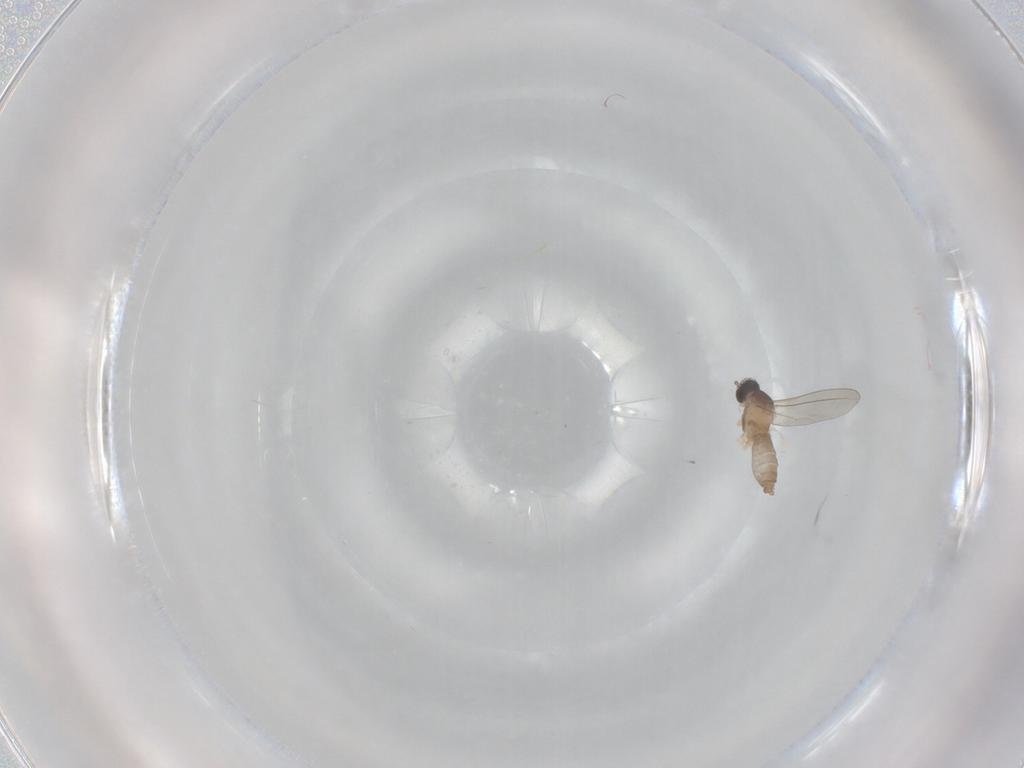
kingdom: Animalia
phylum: Arthropoda
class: Insecta
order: Diptera
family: Cecidomyiidae
